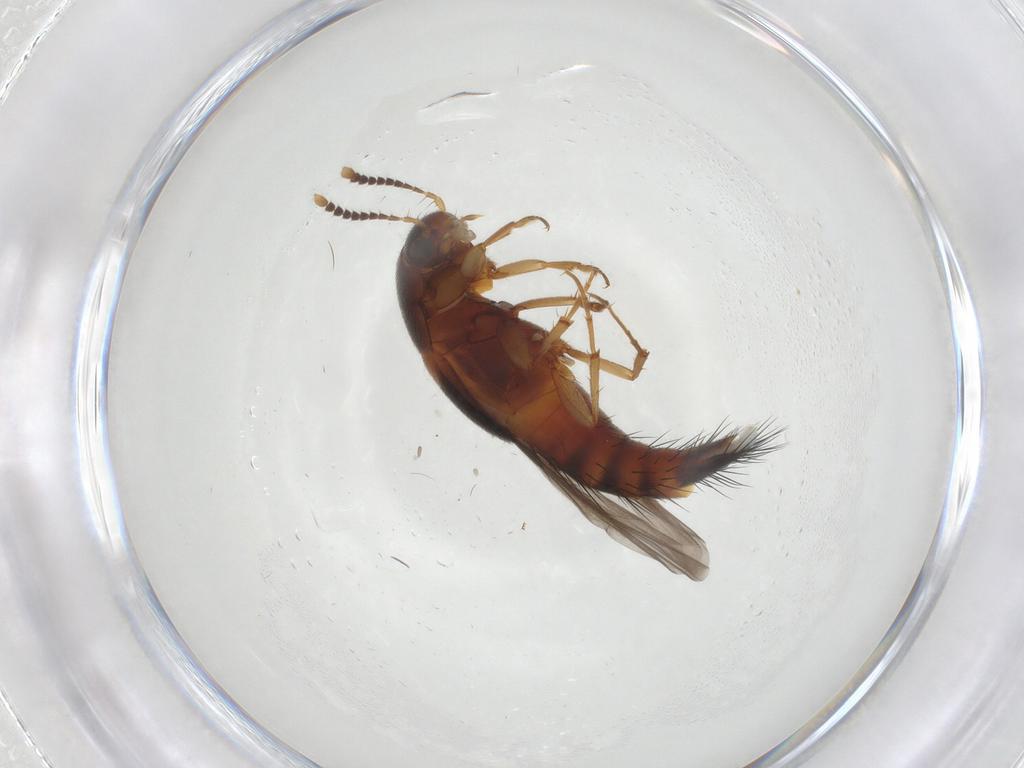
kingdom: Animalia
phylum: Arthropoda
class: Insecta
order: Coleoptera
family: Staphylinidae
